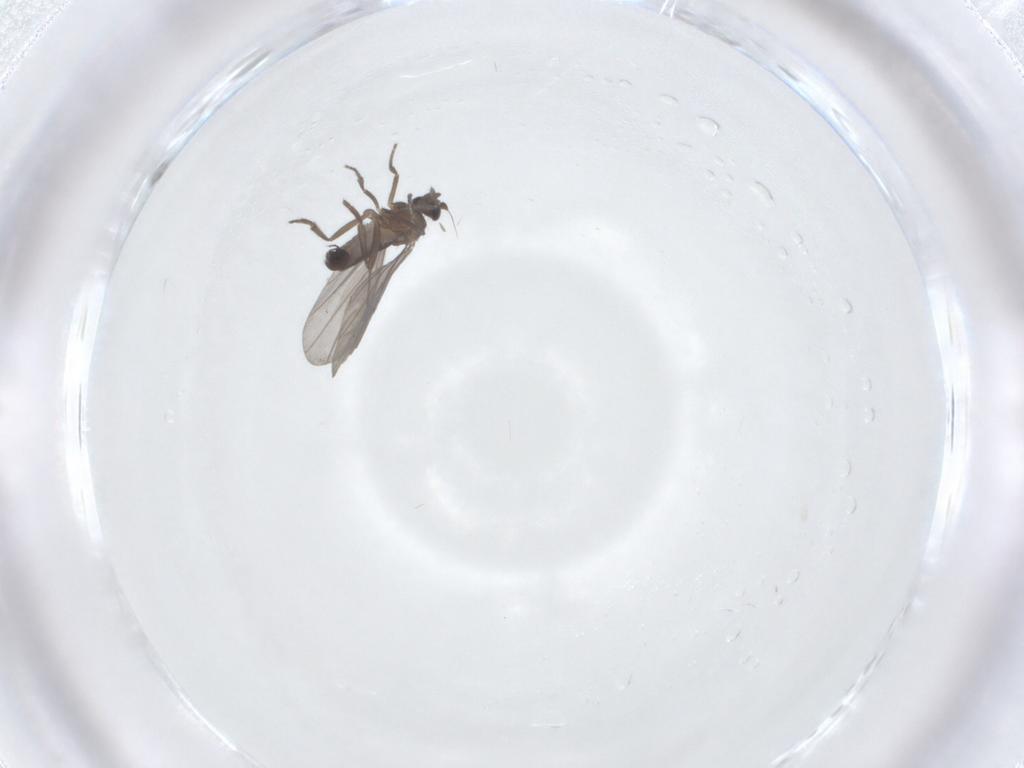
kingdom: Animalia
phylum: Arthropoda
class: Insecta
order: Diptera
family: Phoridae
